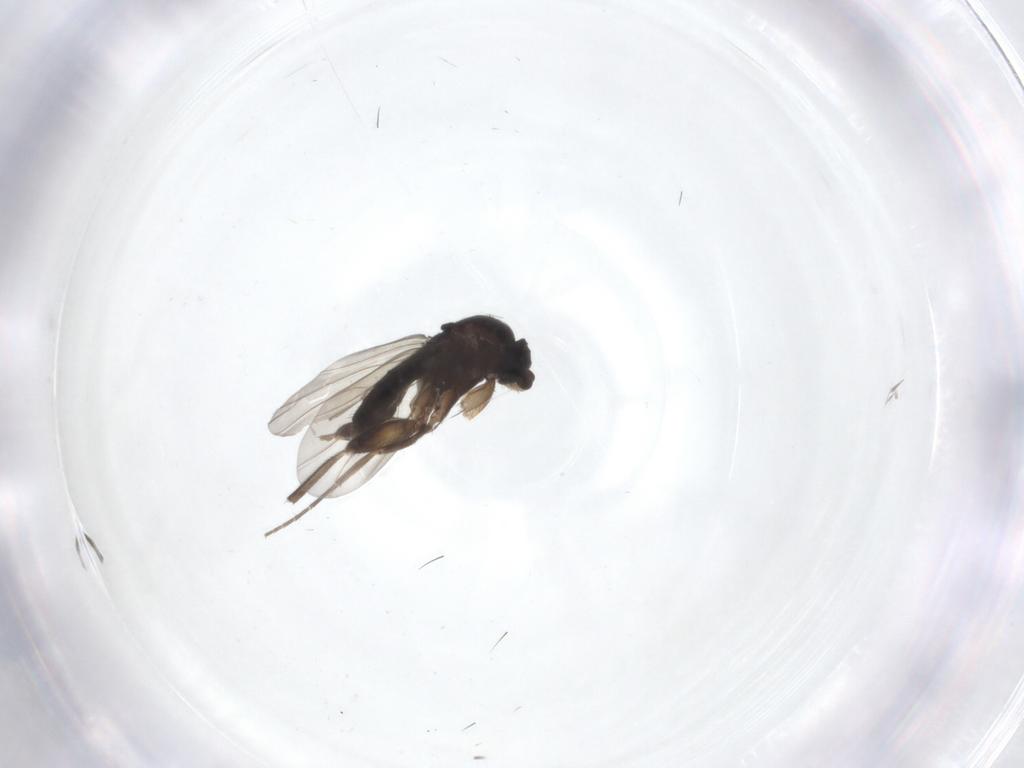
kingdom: Animalia
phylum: Arthropoda
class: Insecta
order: Diptera
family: Phoridae
